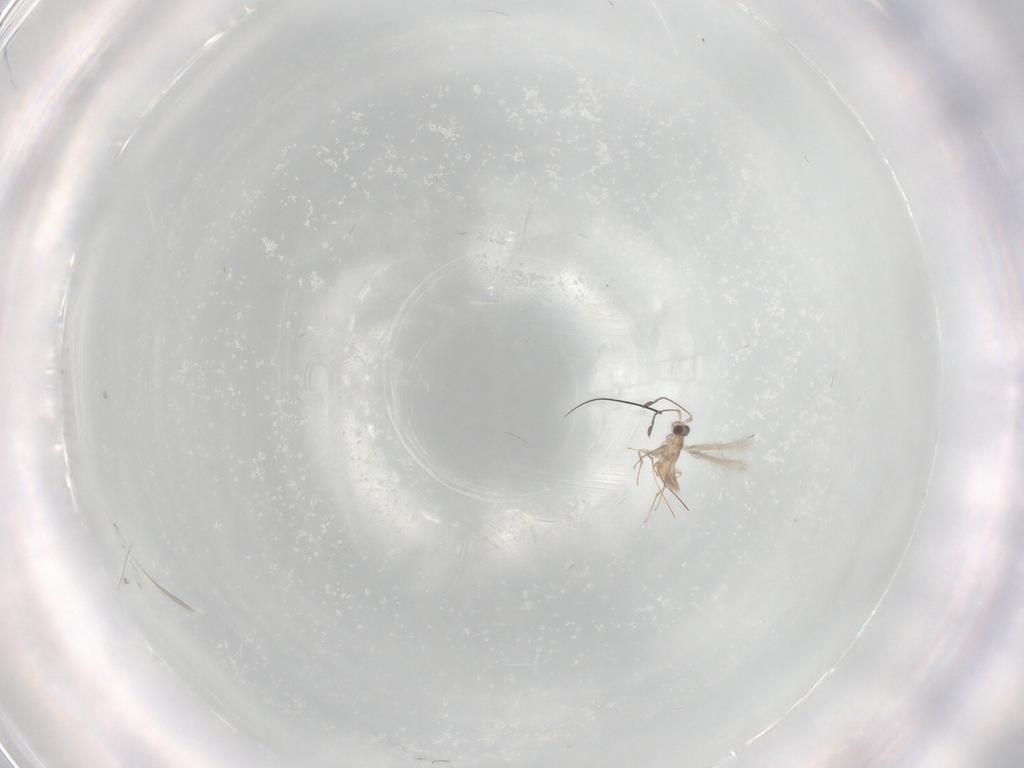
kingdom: Animalia
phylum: Arthropoda
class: Insecta
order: Hymenoptera
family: Mymaridae
